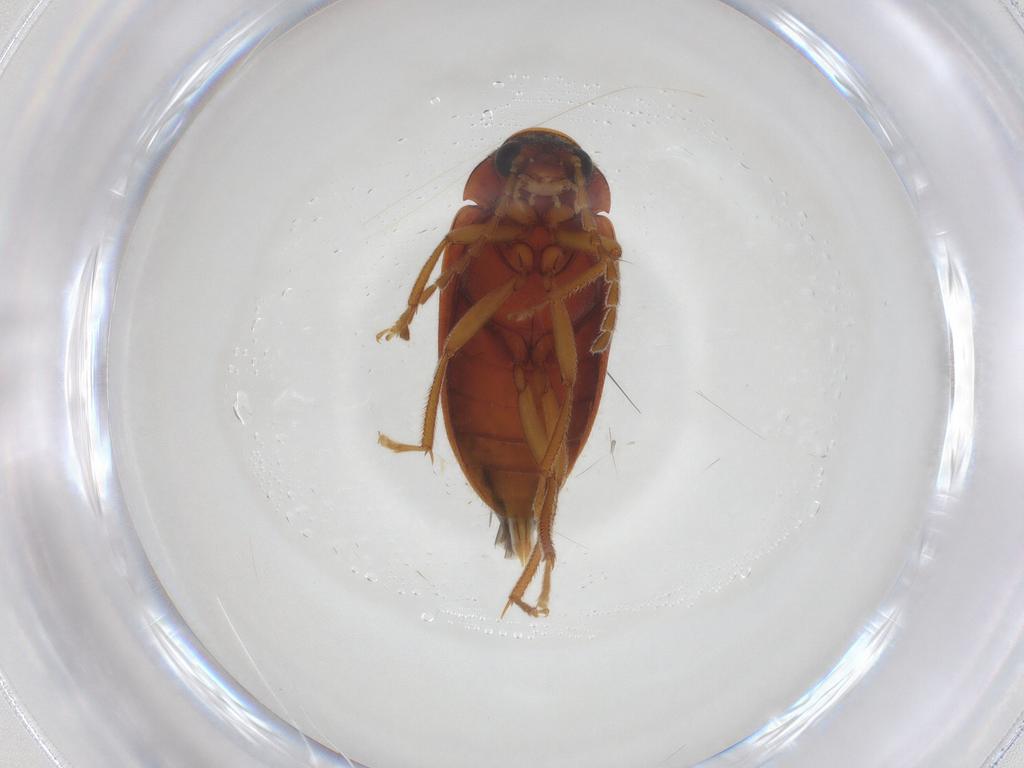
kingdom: Animalia
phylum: Arthropoda
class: Insecta
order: Coleoptera
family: Ptilodactylidae
